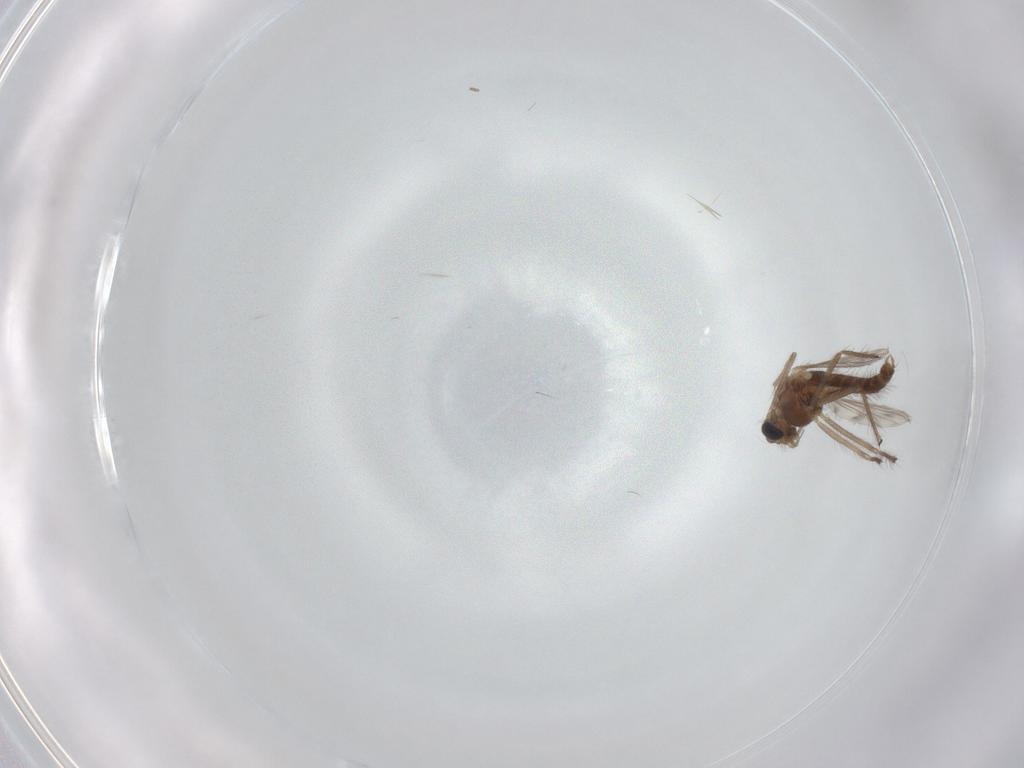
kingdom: Animalia
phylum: Arthropoda
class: Insecta
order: Diptera
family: Chironomidae
